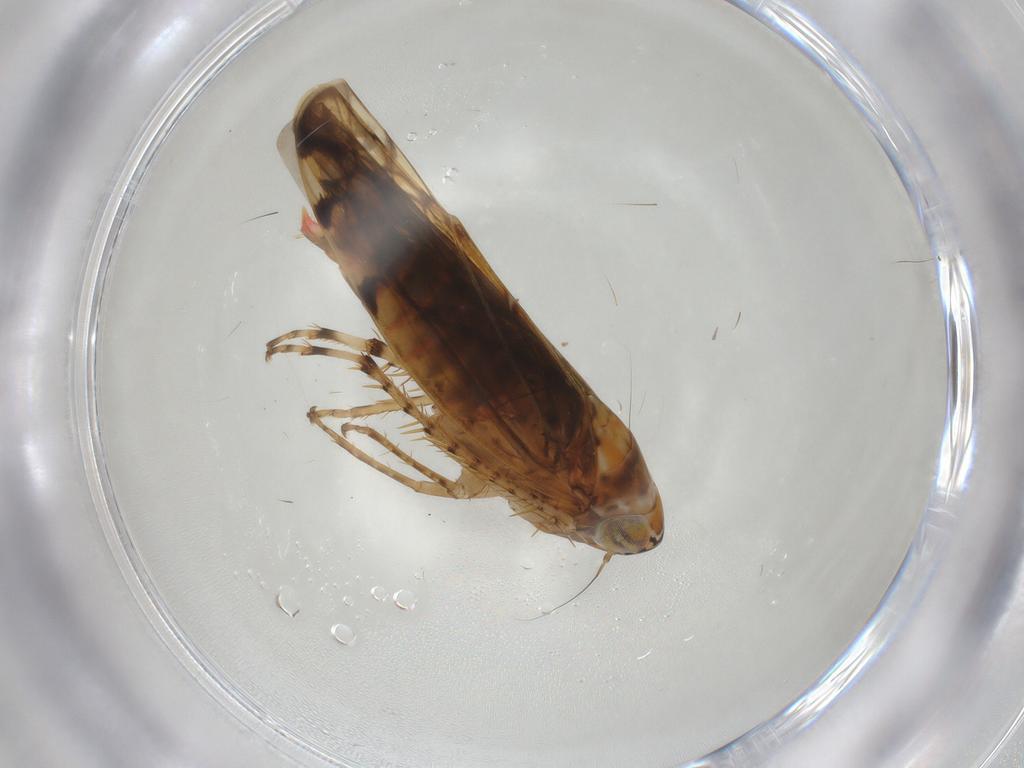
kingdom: Animalia
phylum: Arthropoda
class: Insecta
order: Hemiptera
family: Cicadellidae
